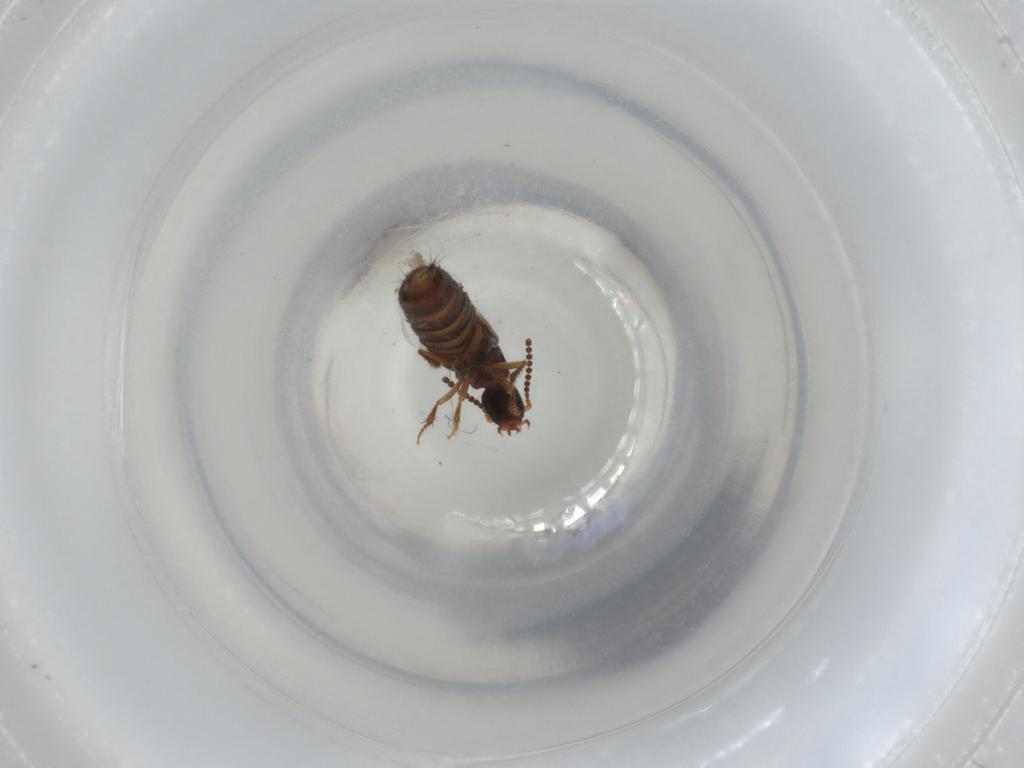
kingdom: Animalia
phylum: Arthropoda
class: Insecta
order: Coleoptera
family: Staphylinidae
